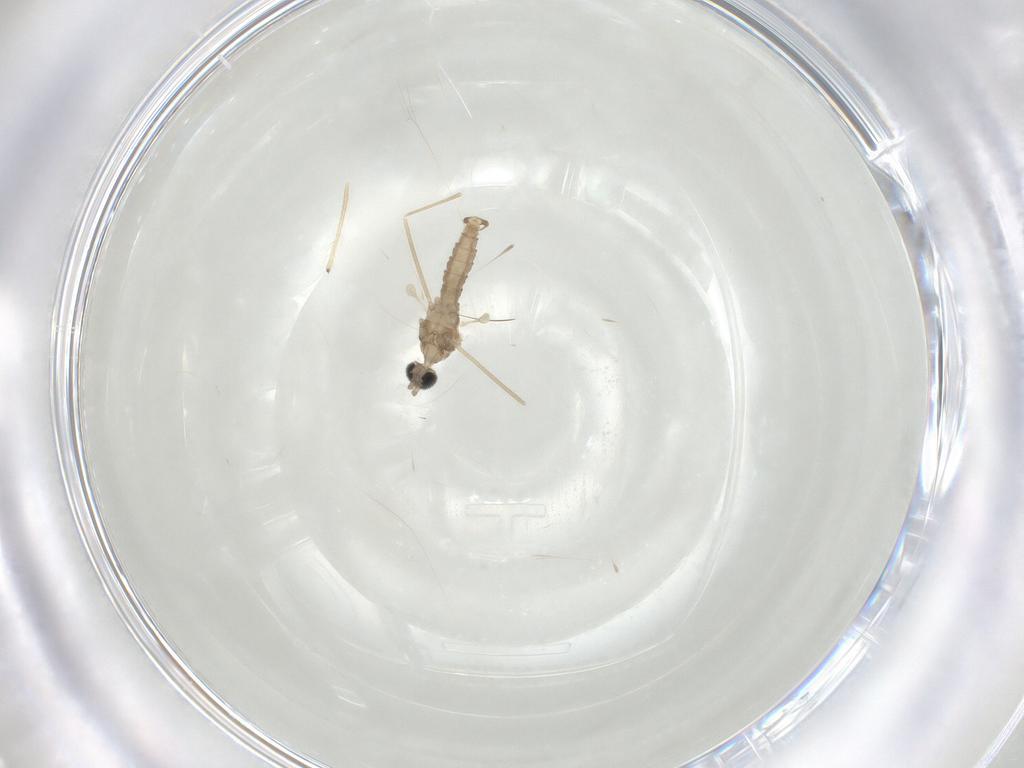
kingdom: Animalia
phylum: Arthropoda
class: Insecta
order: Diptera
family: Cecidomyiidae
